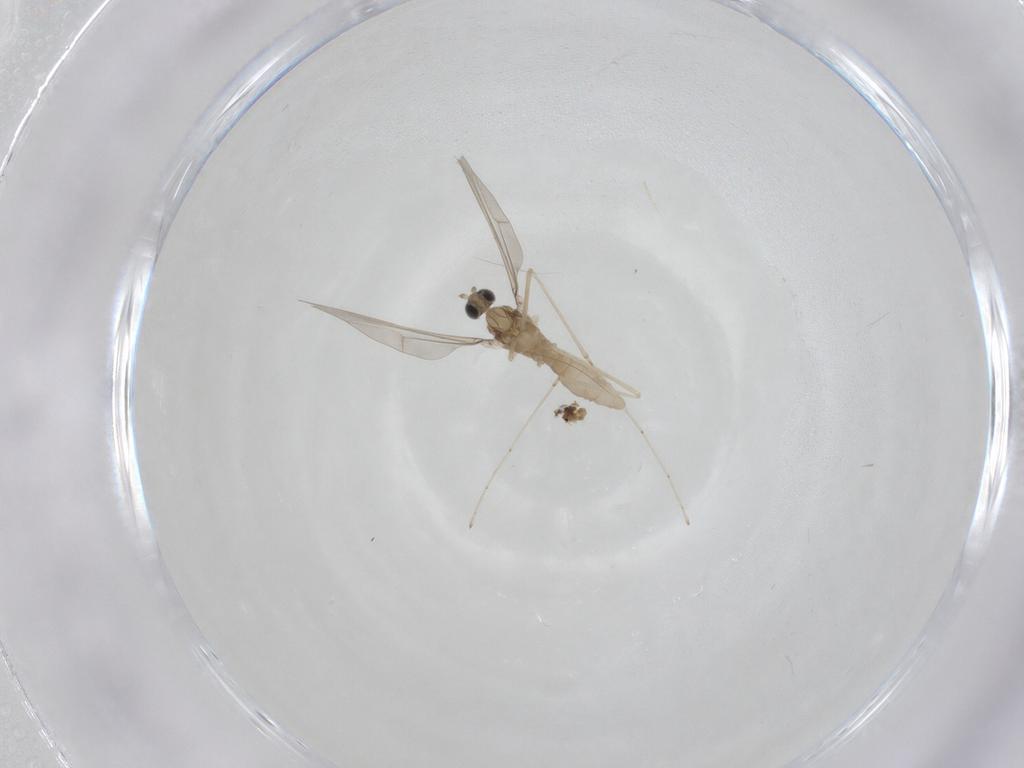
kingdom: Animalia
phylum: Arthropoda
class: Insecta
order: Diptera
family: Cecidomyiidae
